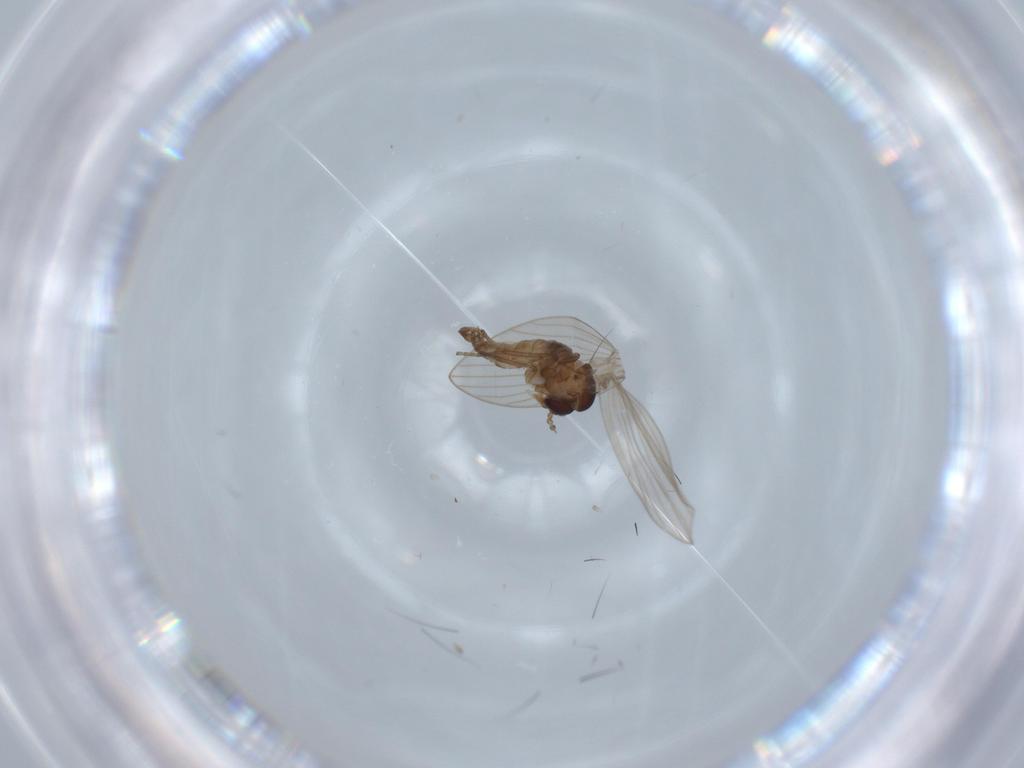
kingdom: Animalia
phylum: Arthropoda
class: Insecta
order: Diptera
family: Psychodidae
